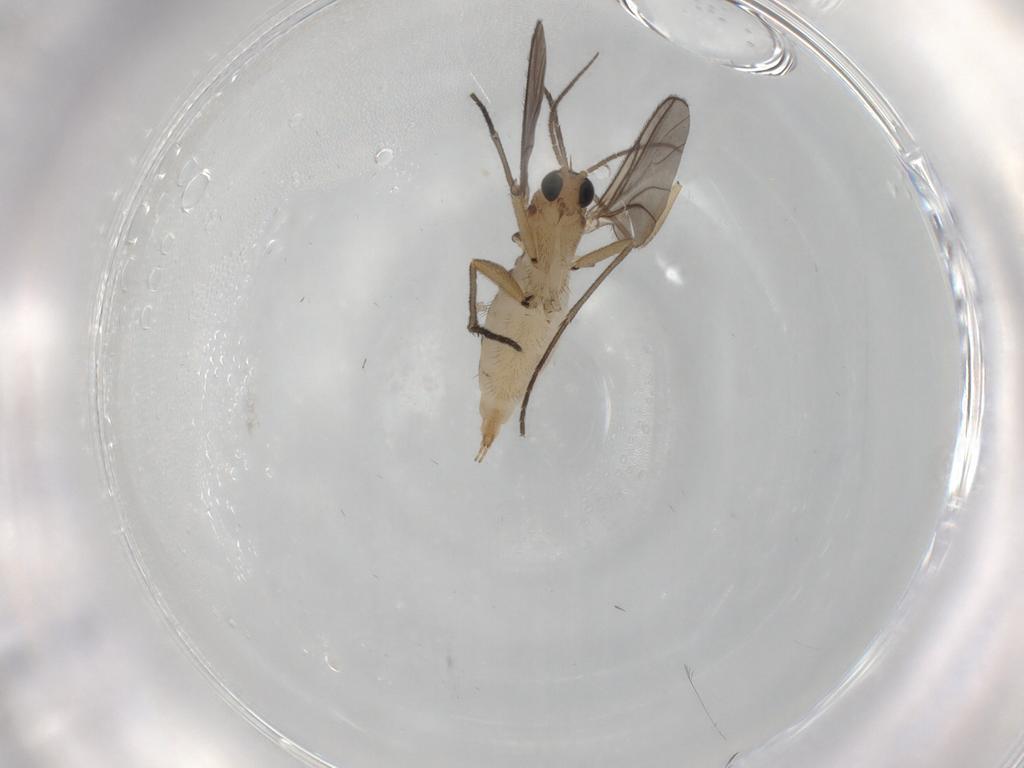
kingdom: Animalia
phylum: Arthropoda
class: Insecta
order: Diptera
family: Sciaridae
